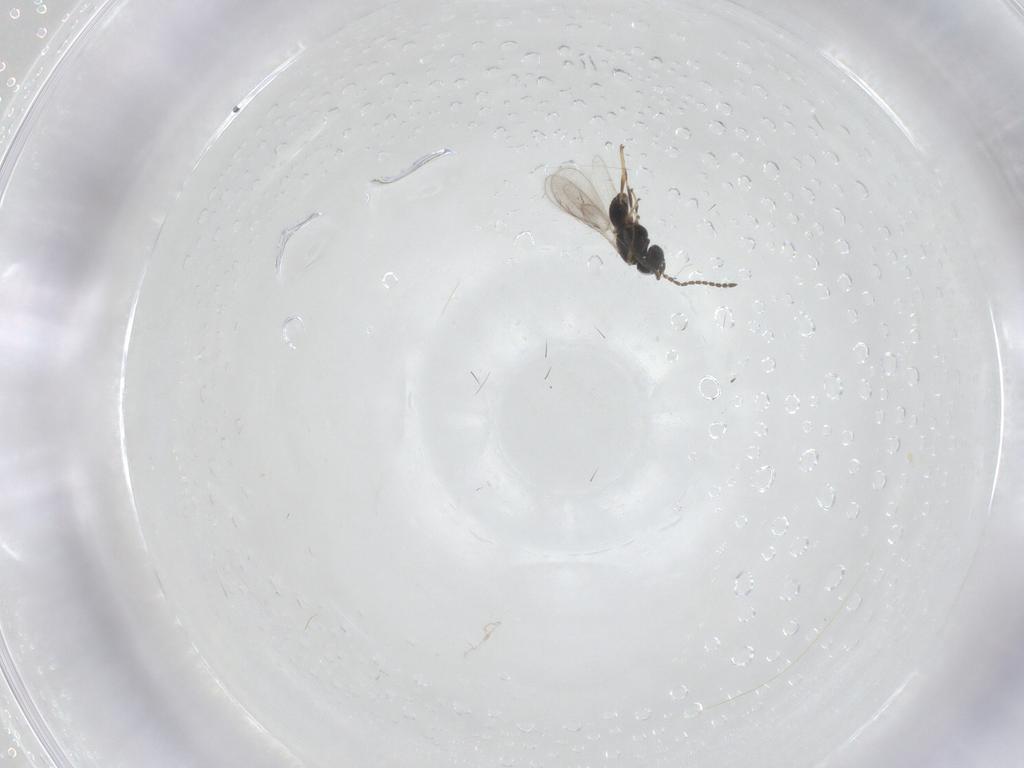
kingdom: Animalia
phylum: Arthropoda
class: Insecta
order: Hymenoptera
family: Scelionidae
